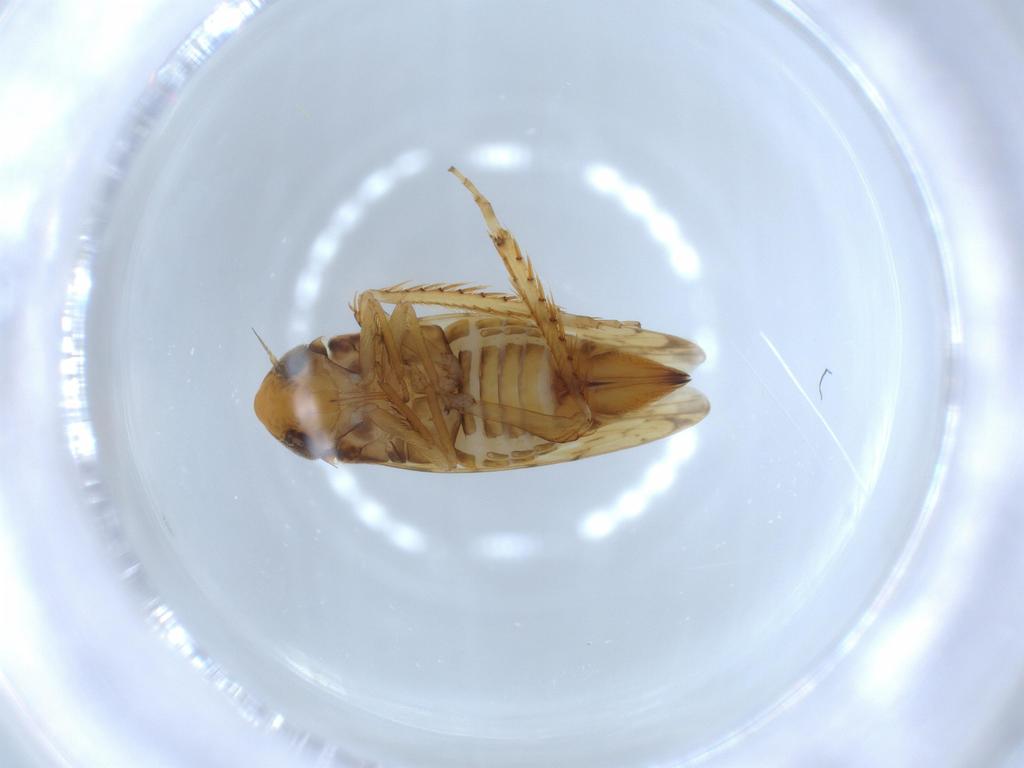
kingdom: Animalia
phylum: Arthropoda
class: Insecta
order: Hemiptera
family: Cicadellidae
